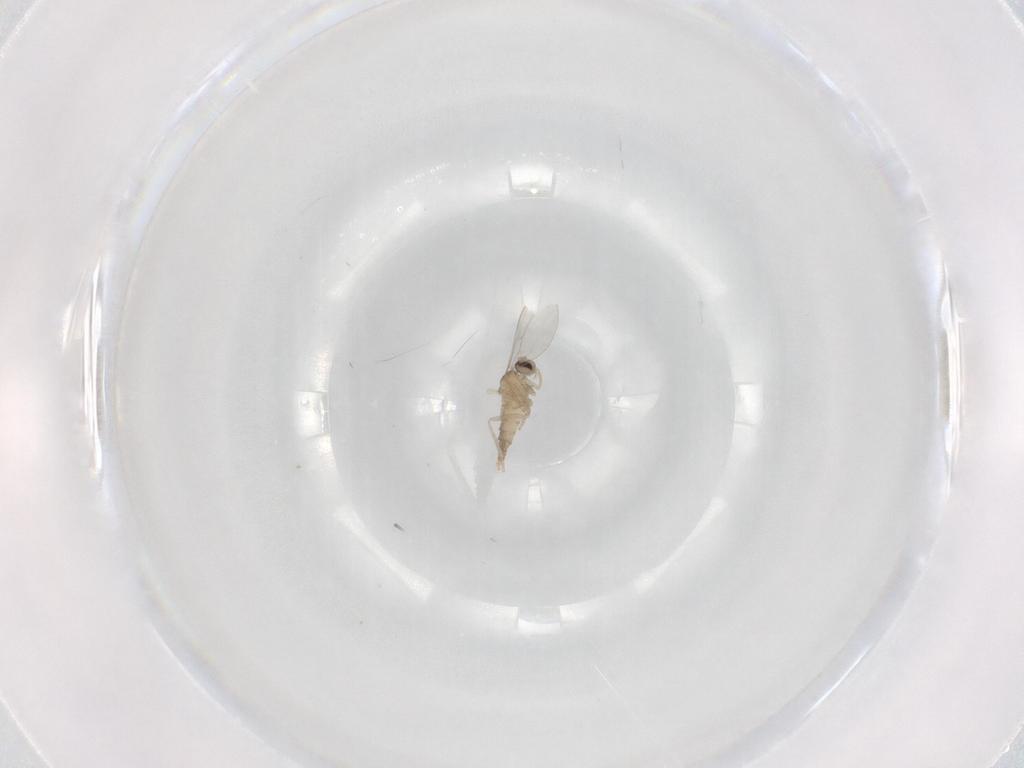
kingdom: Animalia
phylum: Arthropoda
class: Insecta
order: Diptera
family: Cecidomyiidae
